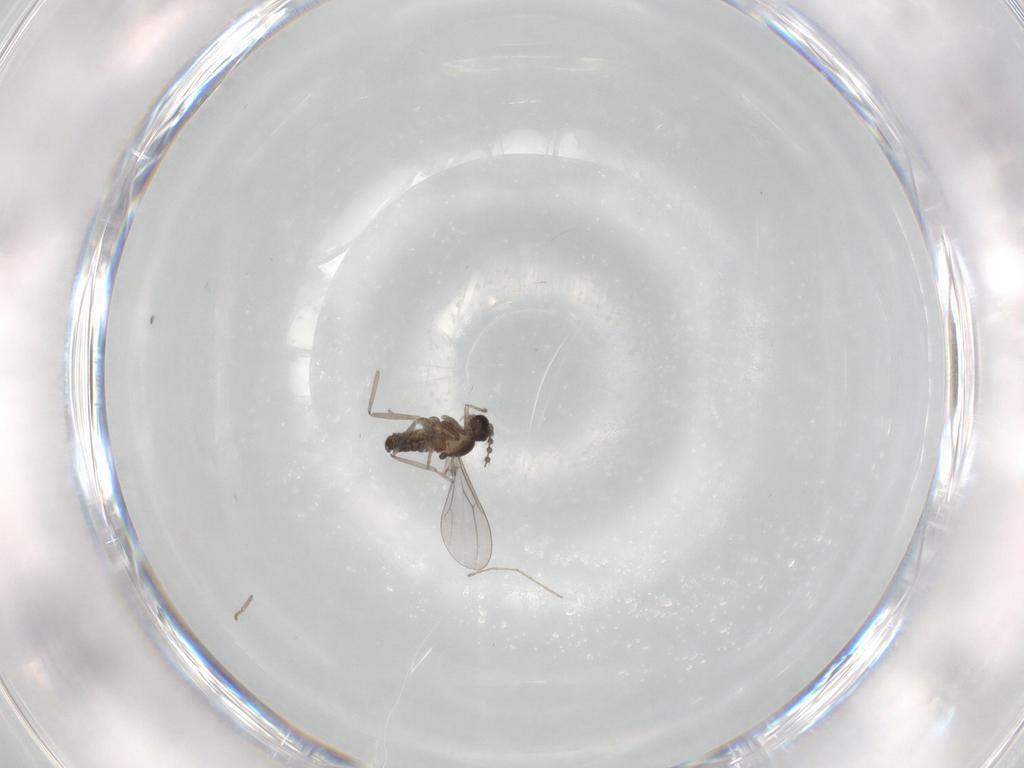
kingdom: Animalia
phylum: Arthropoda
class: Insecta
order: Diptera
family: Cecidomyiidae
